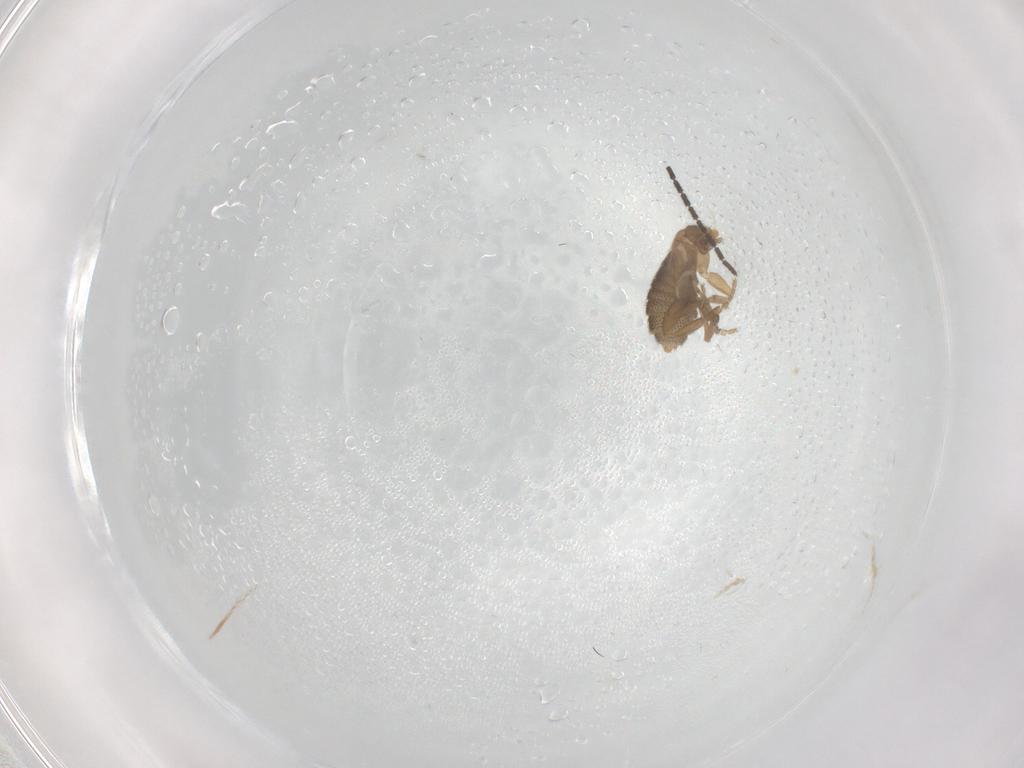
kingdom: Animalia
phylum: Arthropoda
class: Insecta
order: Diptera
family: Phoridae
